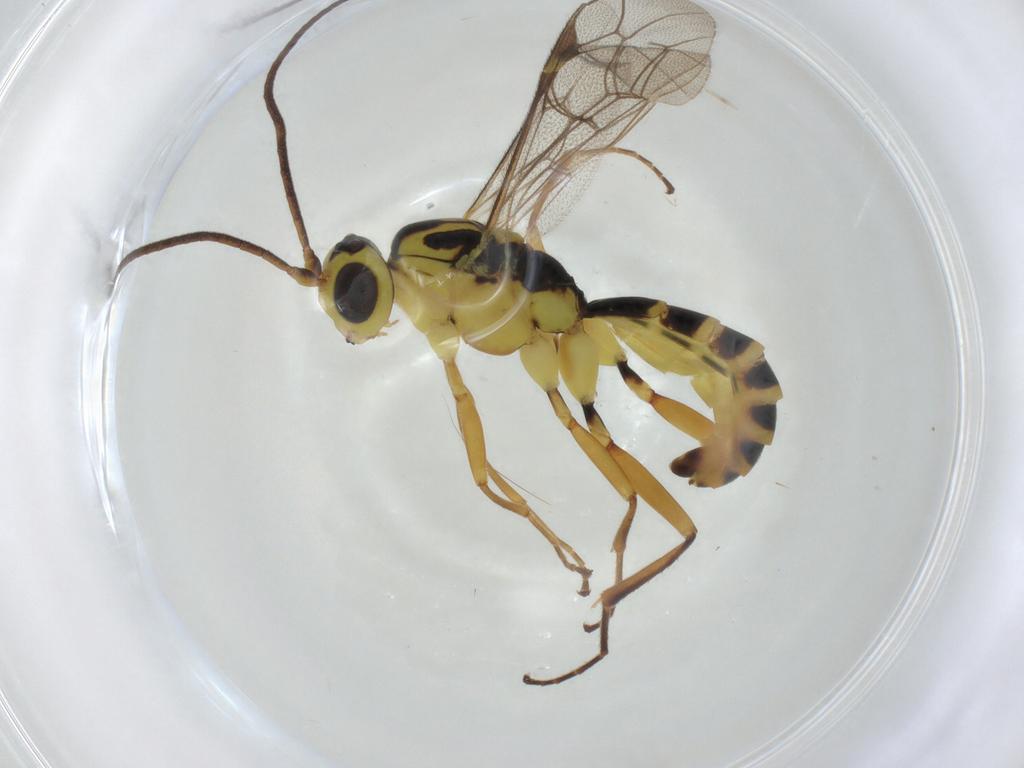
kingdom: Animalia
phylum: Arthropoda
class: Insecta
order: Hymenoptera
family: Ichneumonidae
